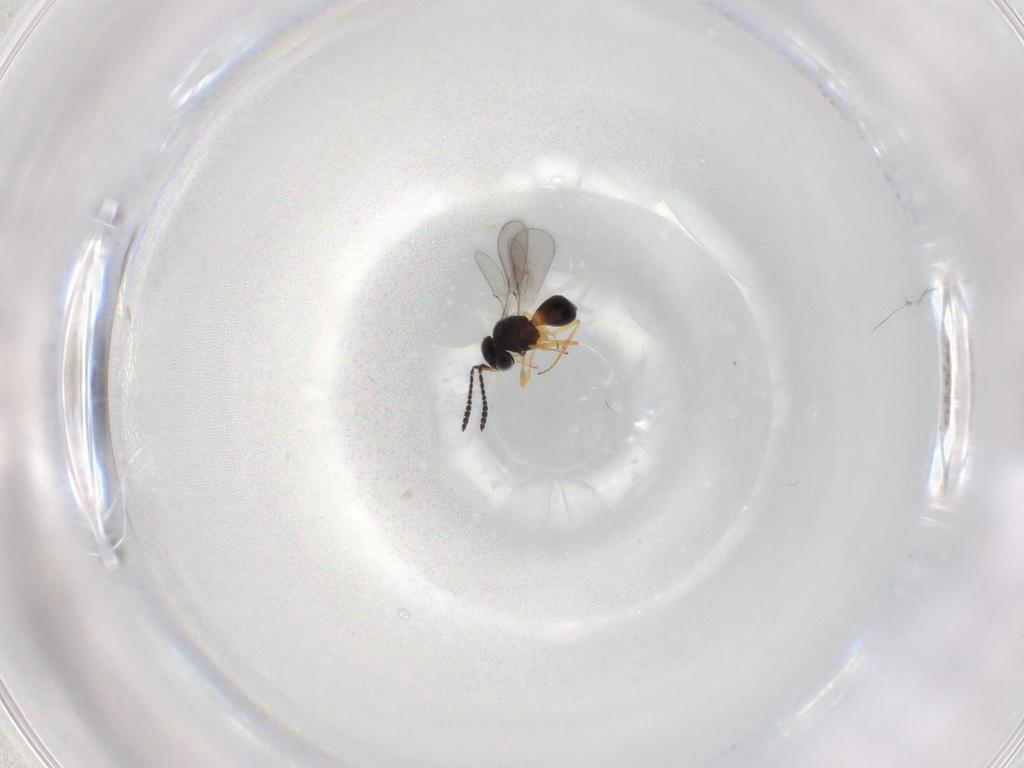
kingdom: Animalia
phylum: Arthropoda
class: Insecta
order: Hymenoptera
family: Scelionidae
